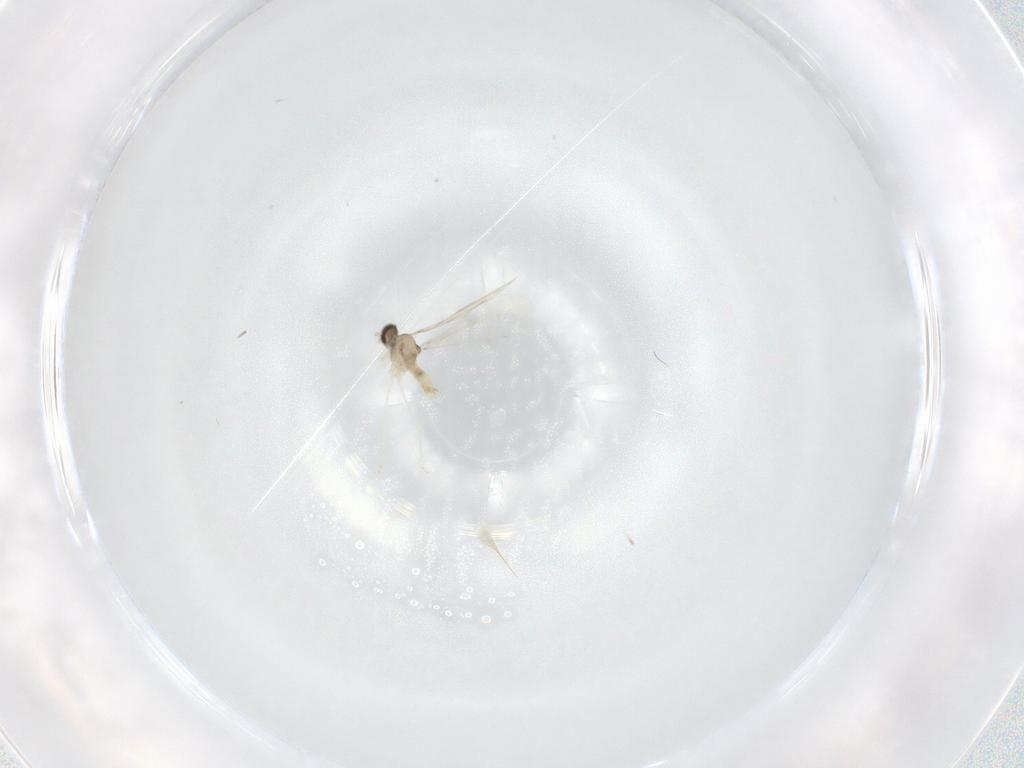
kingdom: Animalia
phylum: Arthropoda
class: Insecta
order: Diptera
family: Cecidomyiidae
